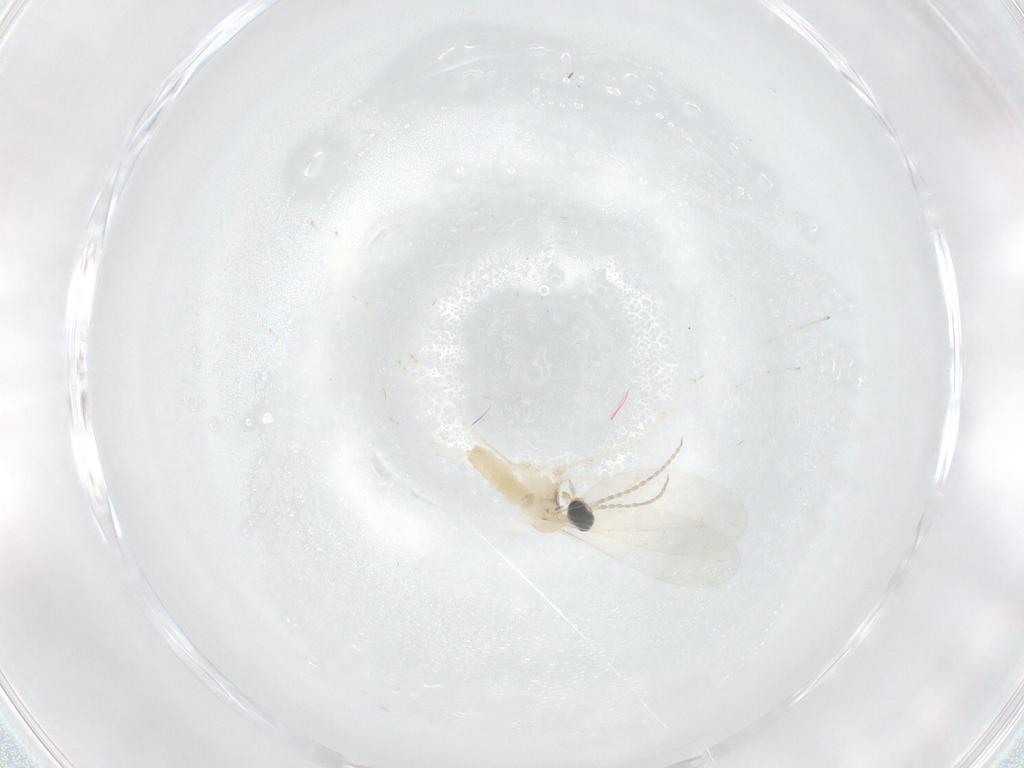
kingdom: Animalia
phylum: Arthropoda
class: Insecta
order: Diptera
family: Cecidomyiidae
